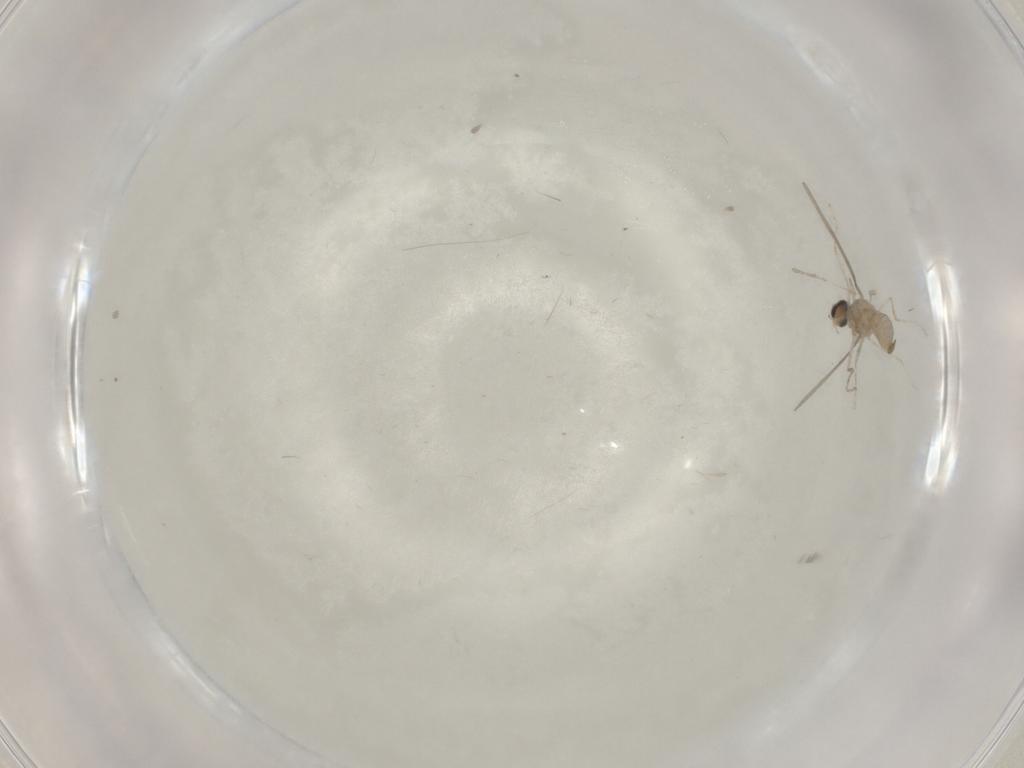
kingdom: Animalia
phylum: Arthropoda
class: Insecta
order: Diptera
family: Cecidomyiidae
